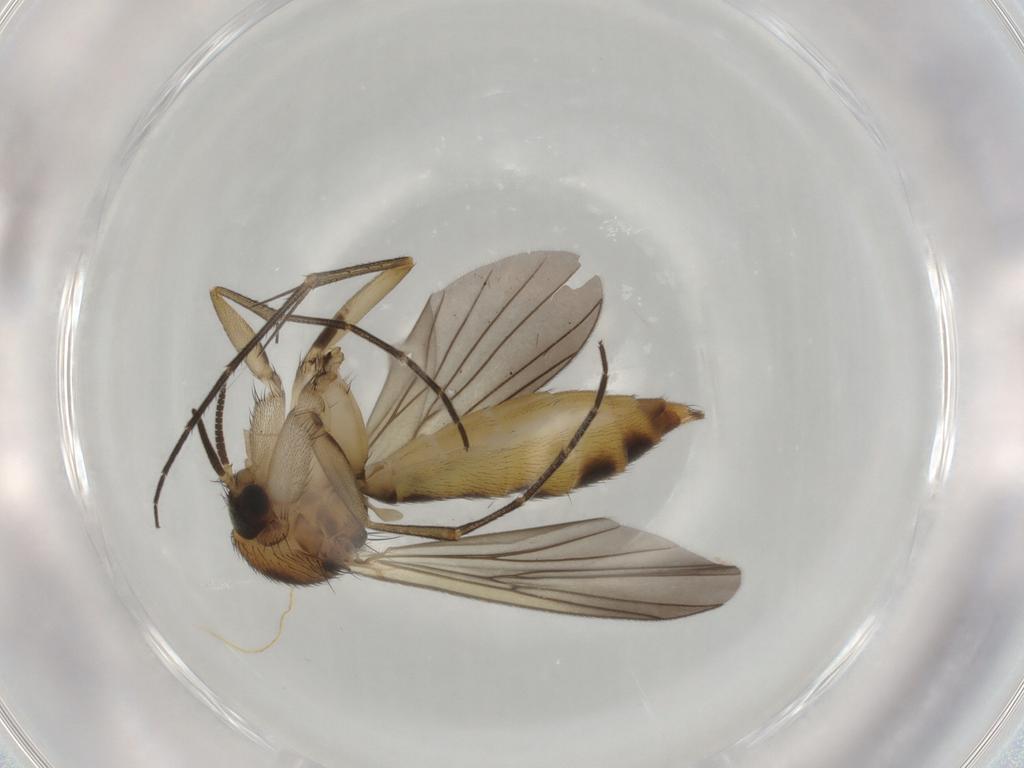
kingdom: Animalia
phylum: Arthropoda
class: Insecta
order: Diptera
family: Mycetophilidae
